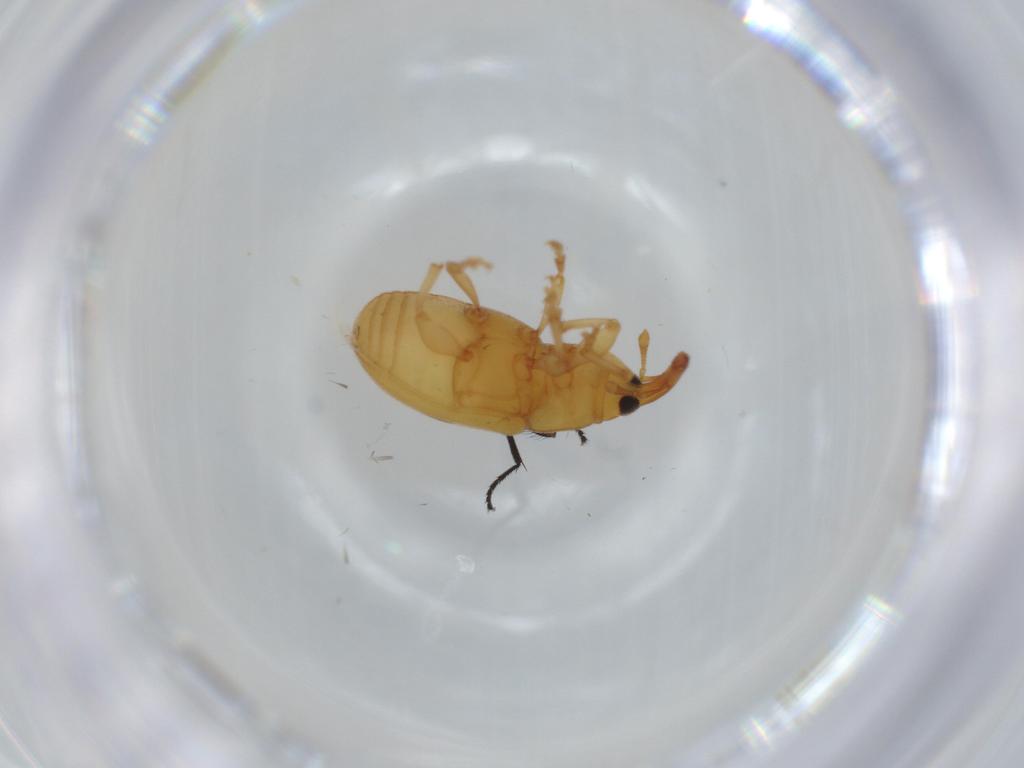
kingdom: Animalia
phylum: Arthropoda
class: Insecta
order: Coleoptera
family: Curculionidae
